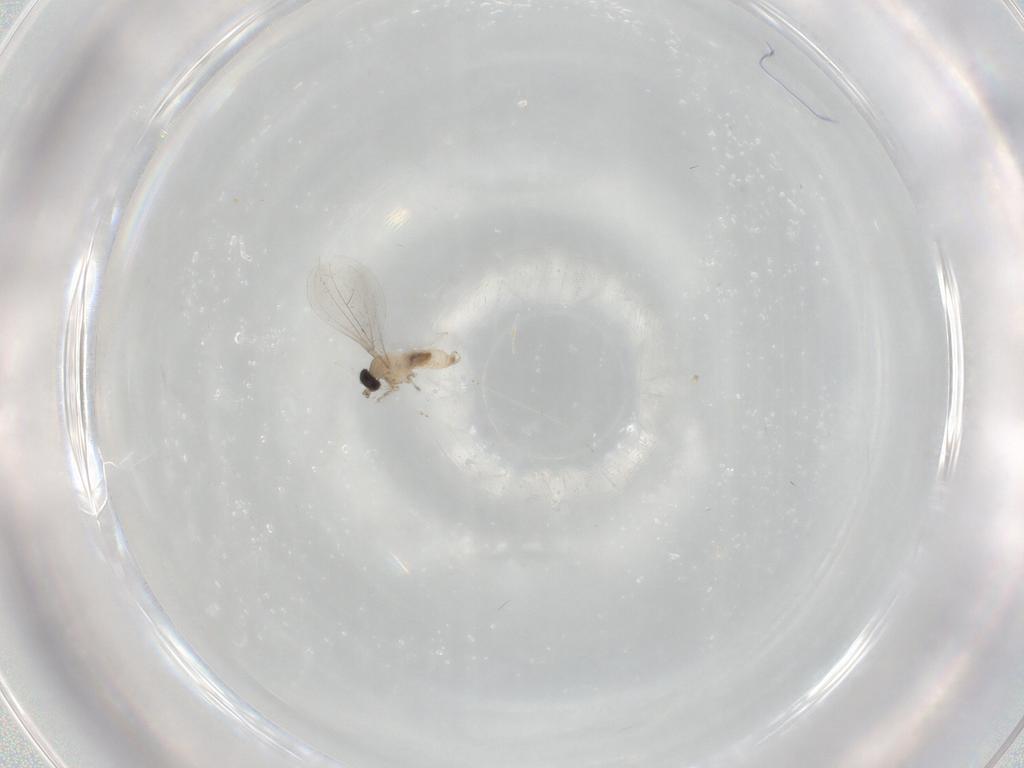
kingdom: Animalia
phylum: Arthropoda
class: Insecta
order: Diptera
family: Cecidomyiidae
